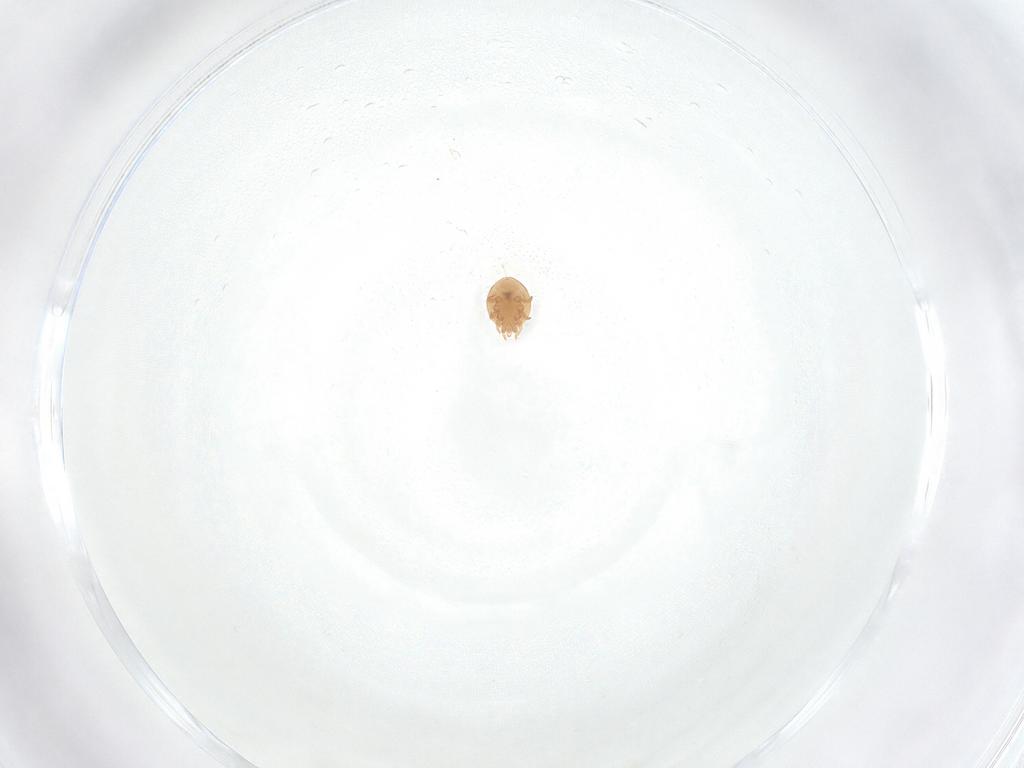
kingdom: Animalia
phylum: Arthropoda
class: Arachnida
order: Mesostigmata
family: Trematuridae
